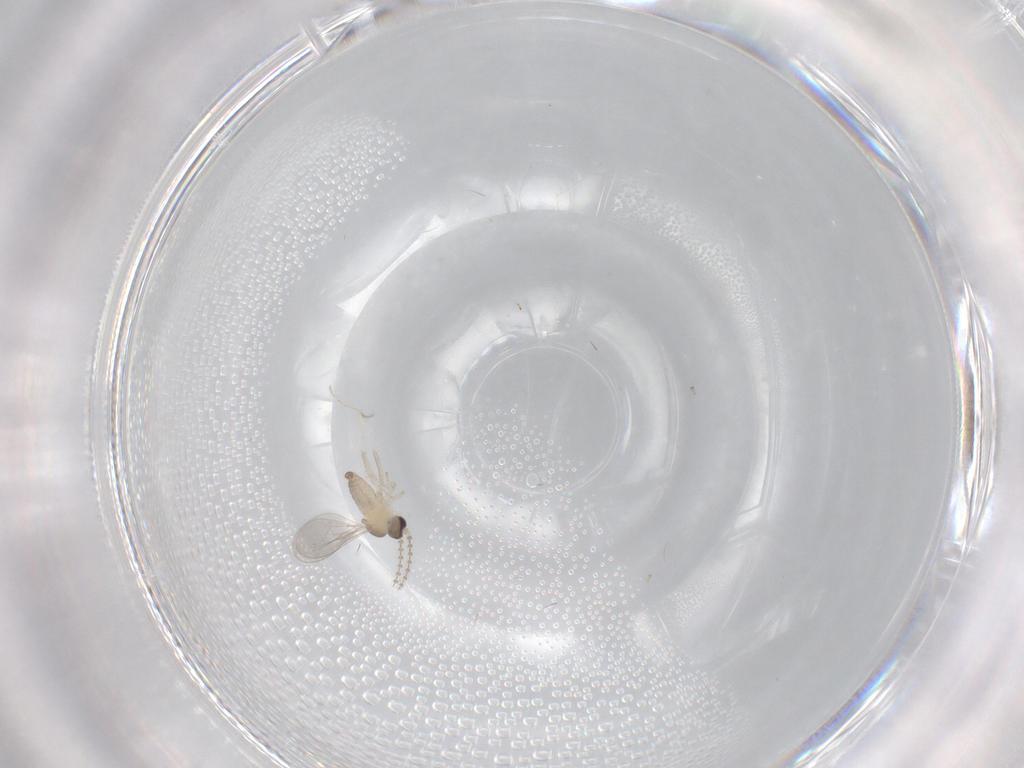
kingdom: Animalia
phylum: Arthropoda
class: Insecta
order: Diptera
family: Cecidomyiidae
